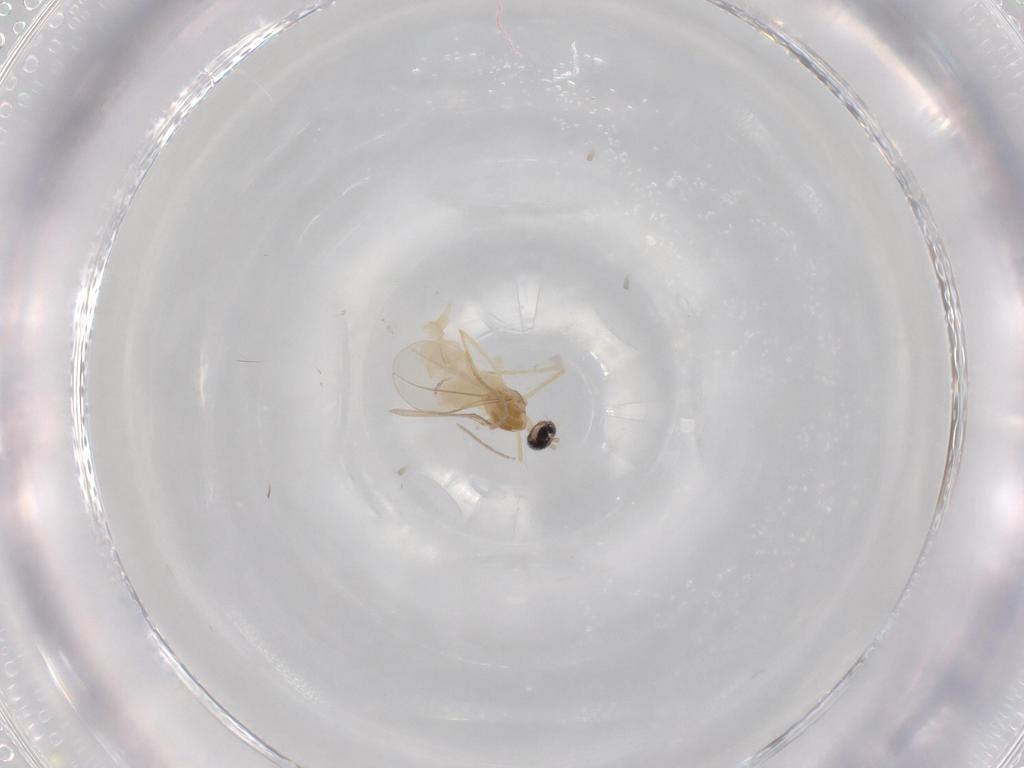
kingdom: Animalia
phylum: Arthropoda
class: Insecta
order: Diptera
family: Cecidomyiidae
